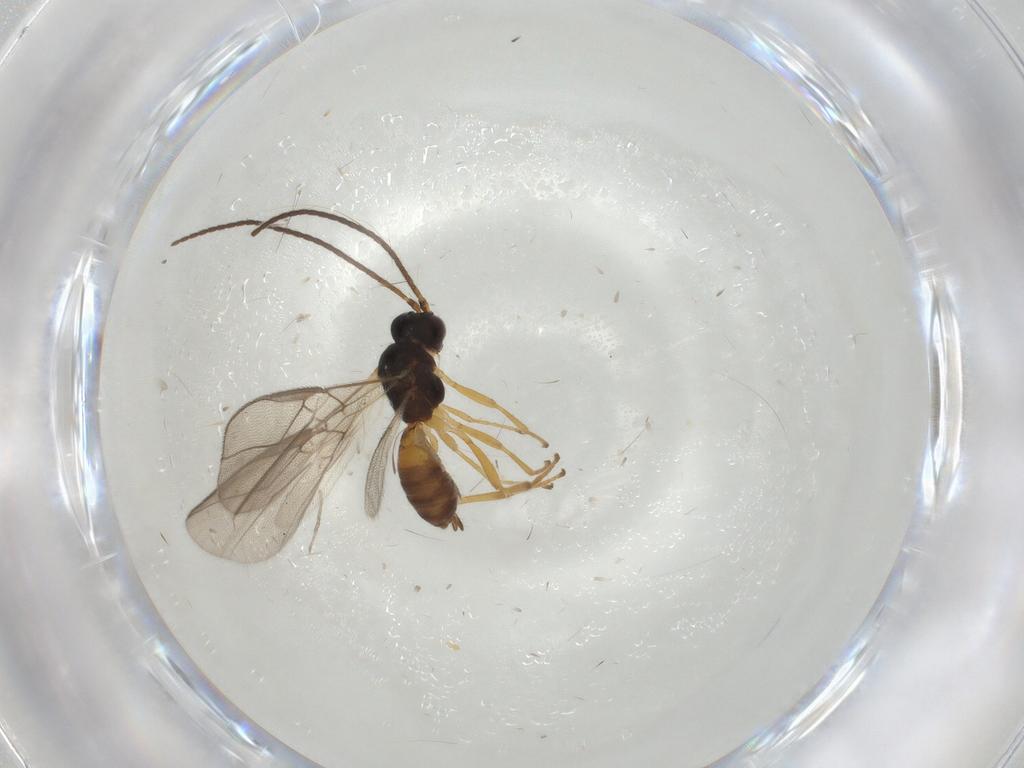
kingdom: Animalia
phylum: Arthropoda
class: Insecta
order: Hymenoptera
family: Braconidae
